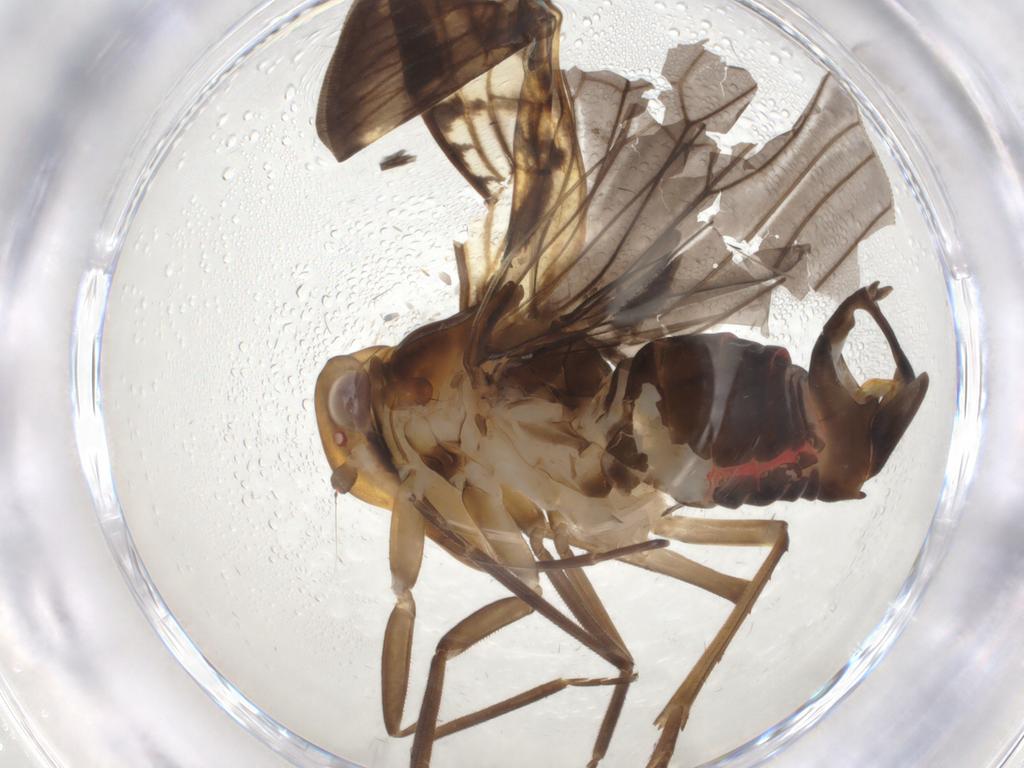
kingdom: Animalia
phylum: Arthropoda
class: Insecta
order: Hemiptera
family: Cixiidae
